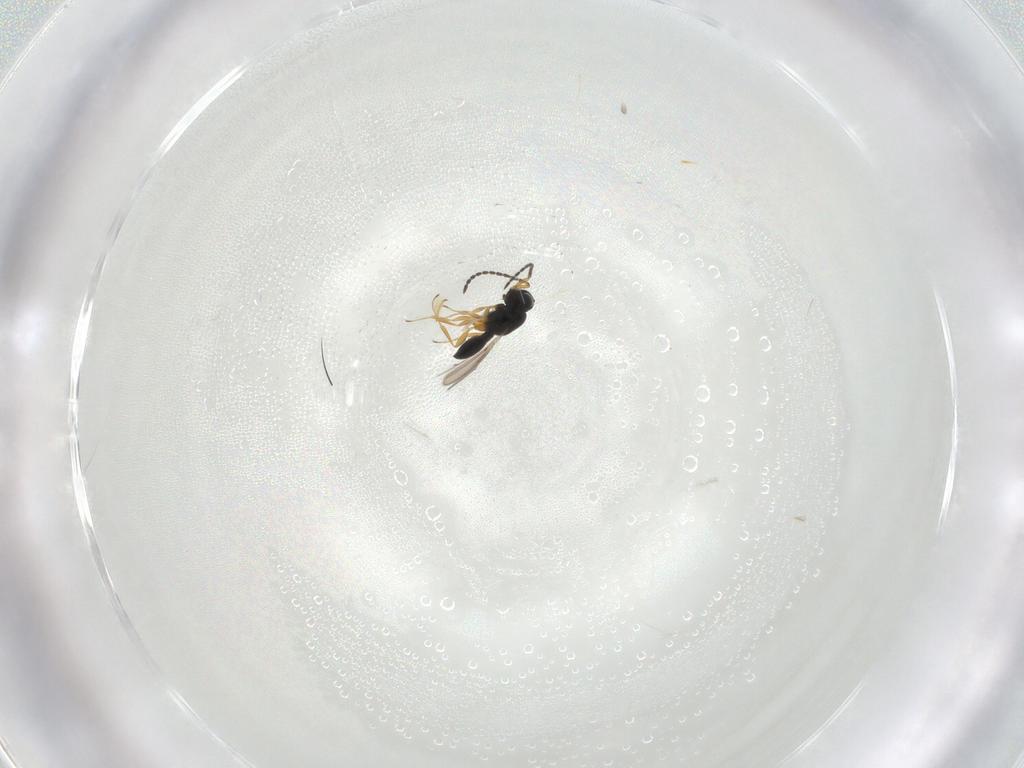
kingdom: Animalia
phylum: Arthropoda
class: Insecta
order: Hymenoptera
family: Scelionidae
